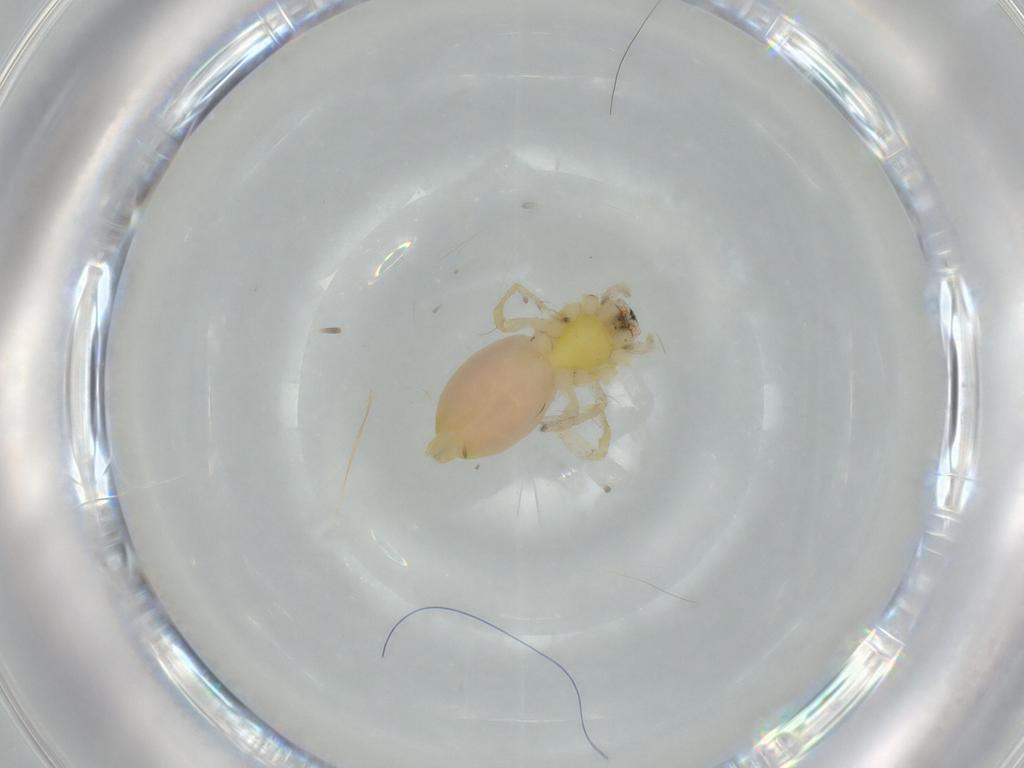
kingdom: Animalia
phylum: Arthropoda
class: Arachnida
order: Araneae
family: Anyphaenidae
